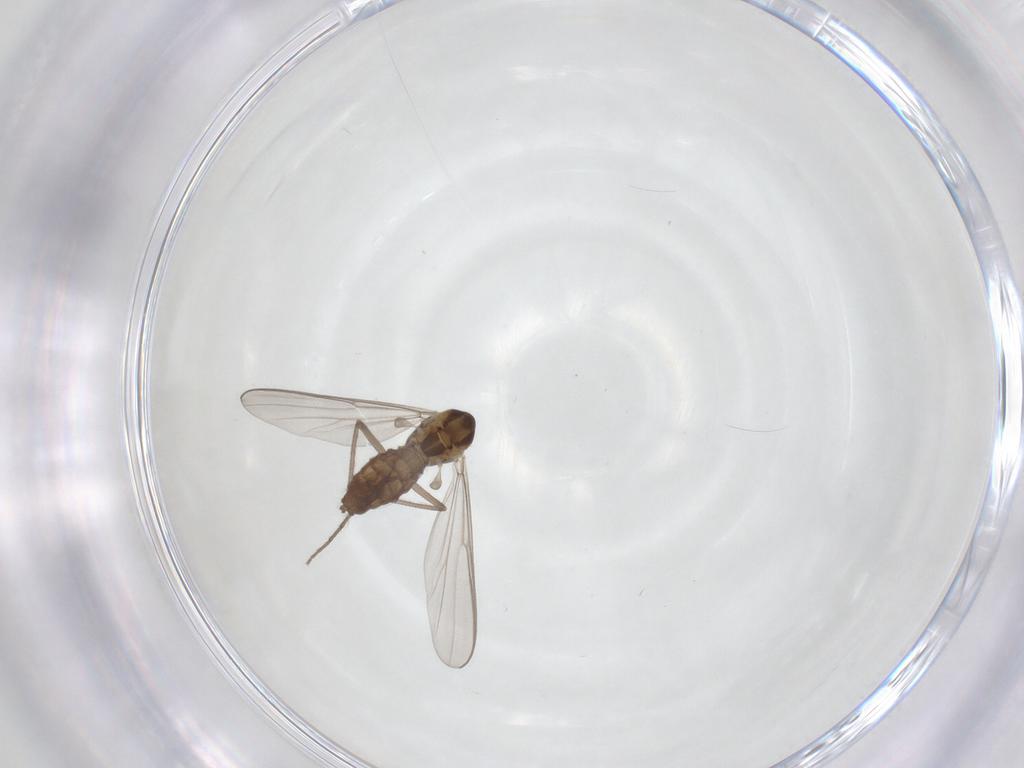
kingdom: Animalia
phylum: Arthropoda
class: Insecta
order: Diptera
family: Chironomidae
